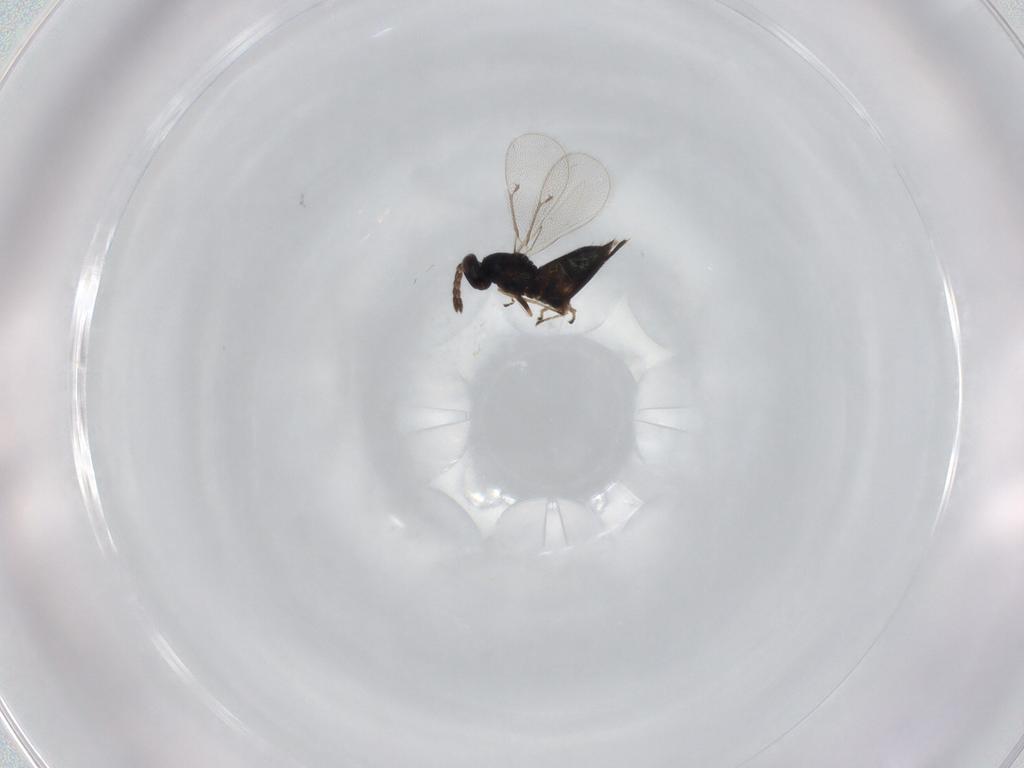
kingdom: Animalia
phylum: Arthropoda
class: Insecta
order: Hymenoptera
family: Eulophidae
